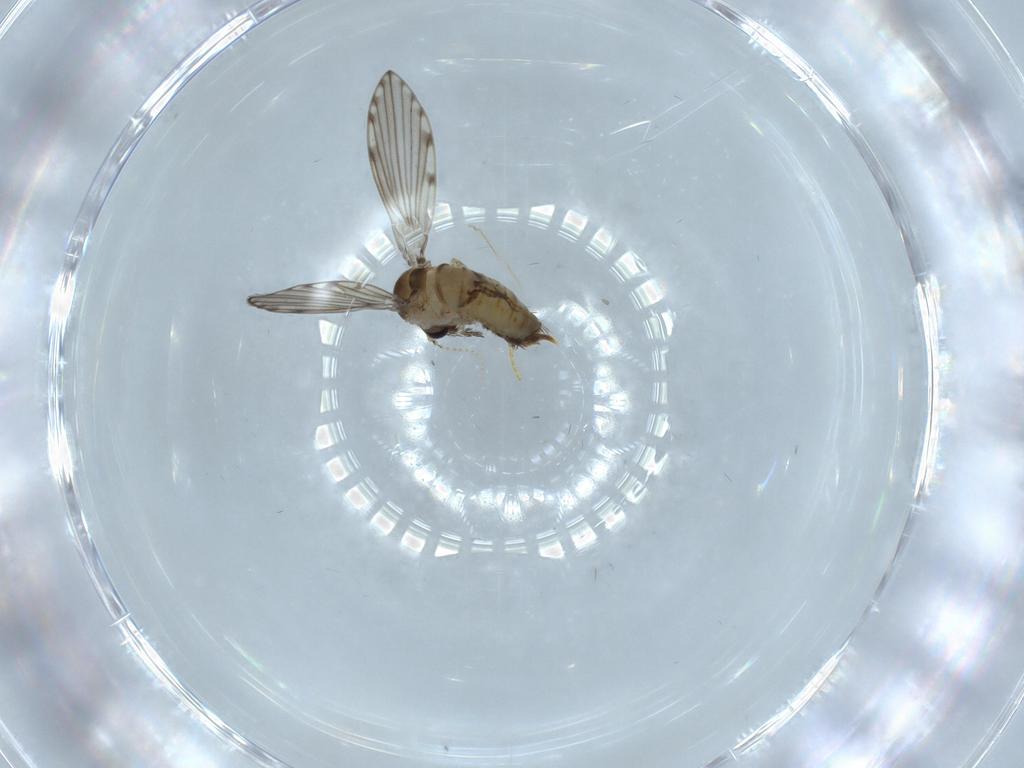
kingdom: Animalia
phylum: Arthropoda
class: Insecta
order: Diptera
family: Psychodidae
